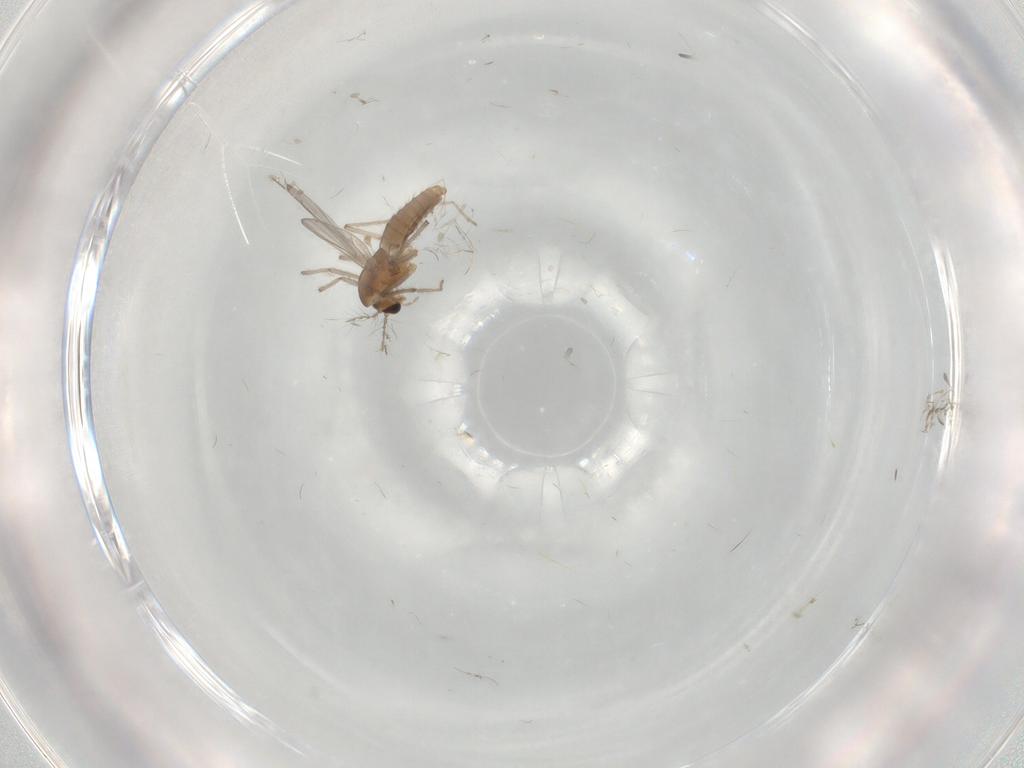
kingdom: Animalia
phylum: Arthropoda
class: Insecta
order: Diptera
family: Chironomidae
